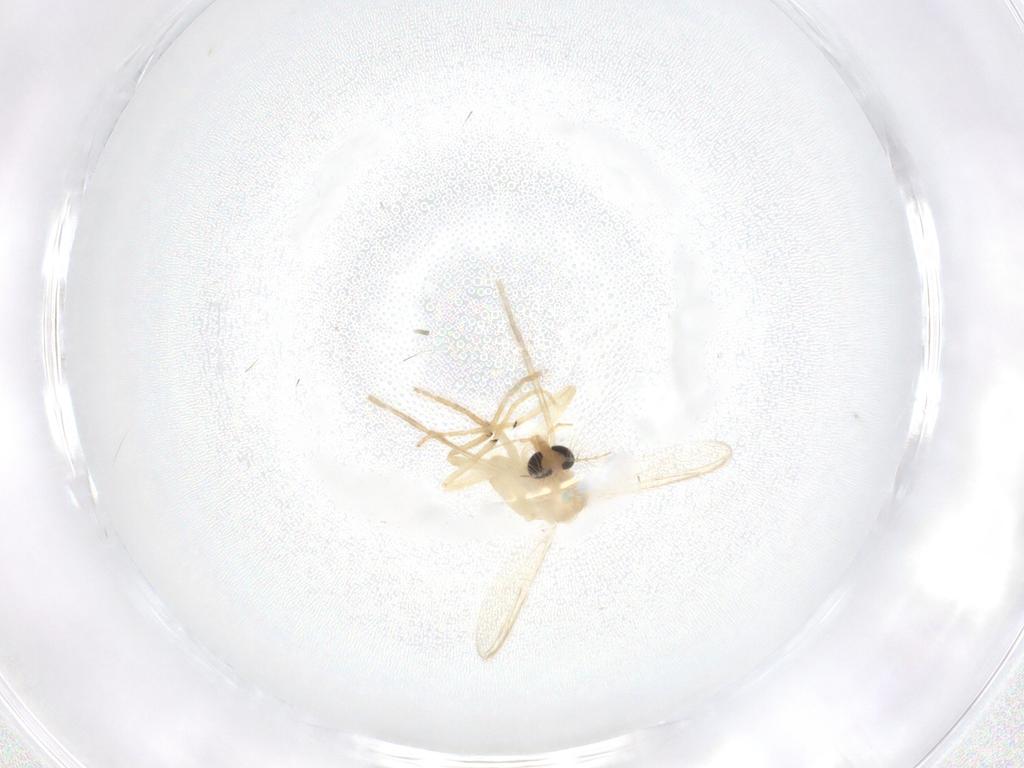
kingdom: Animalia
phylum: Arthropoda
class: Insecta
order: Diptera
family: Chironomidae
